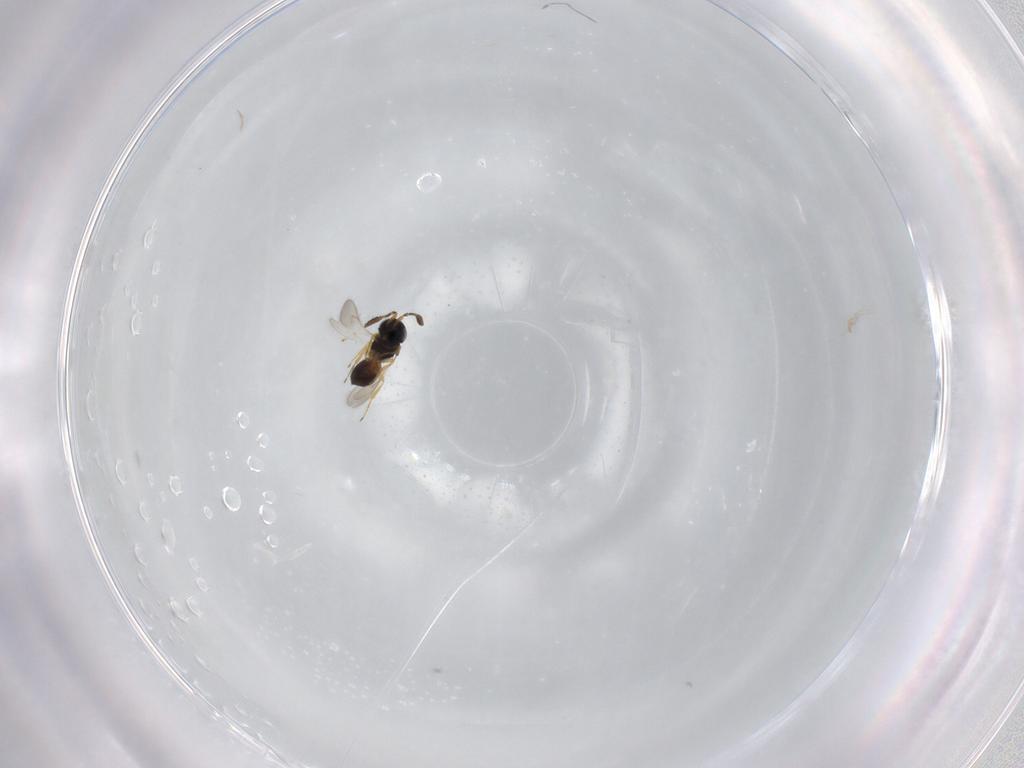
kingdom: Animalia
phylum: Arthropoda
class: Insecta
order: Hymenoptera
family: Scelionidae
